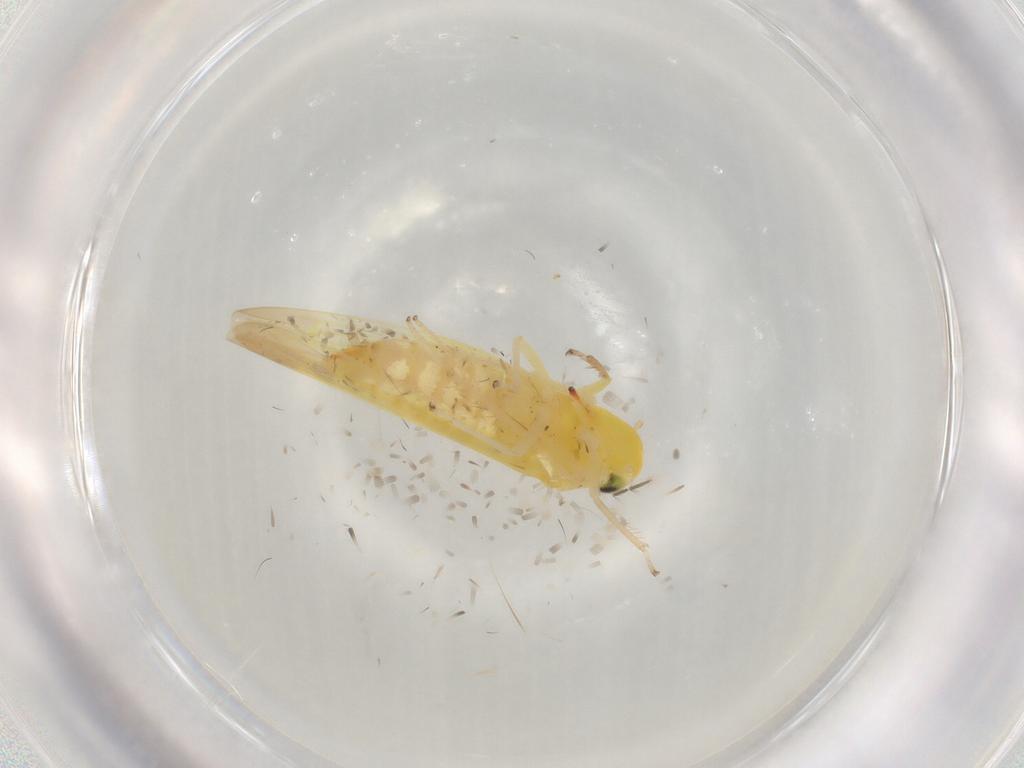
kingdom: Animalia
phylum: Arthropoda
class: Insecta
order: Hemiptera
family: Cicadellidae
